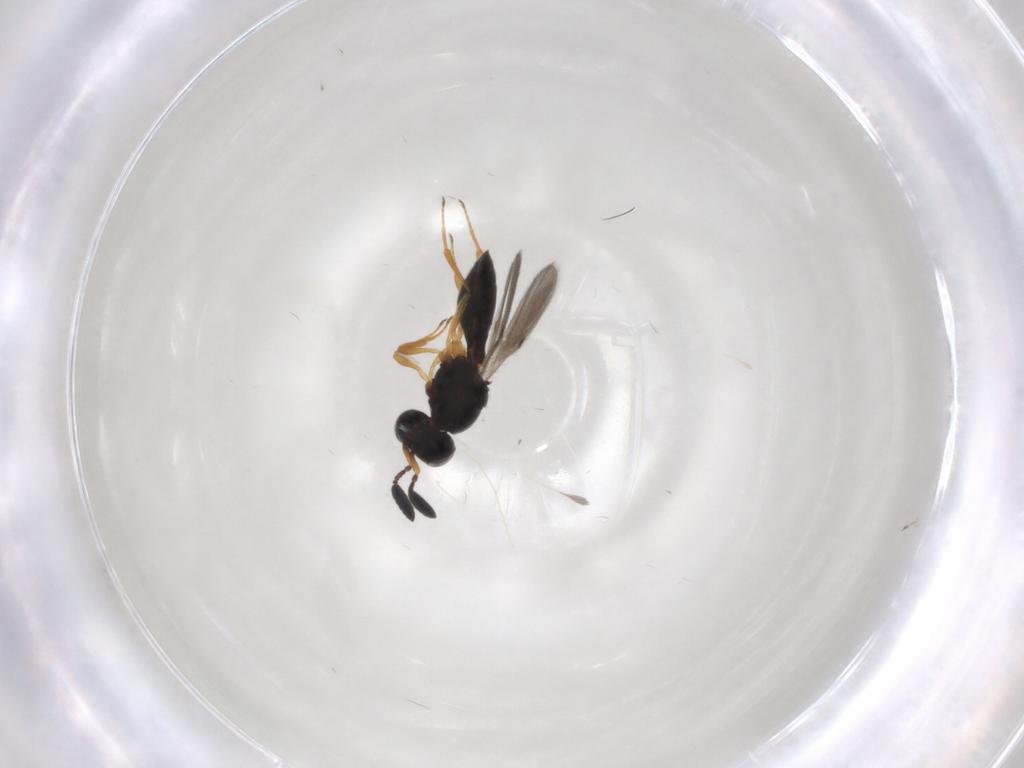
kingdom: Animalia
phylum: Arthropoda
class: Insecta
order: Hymenoptera
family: Scelionidae
